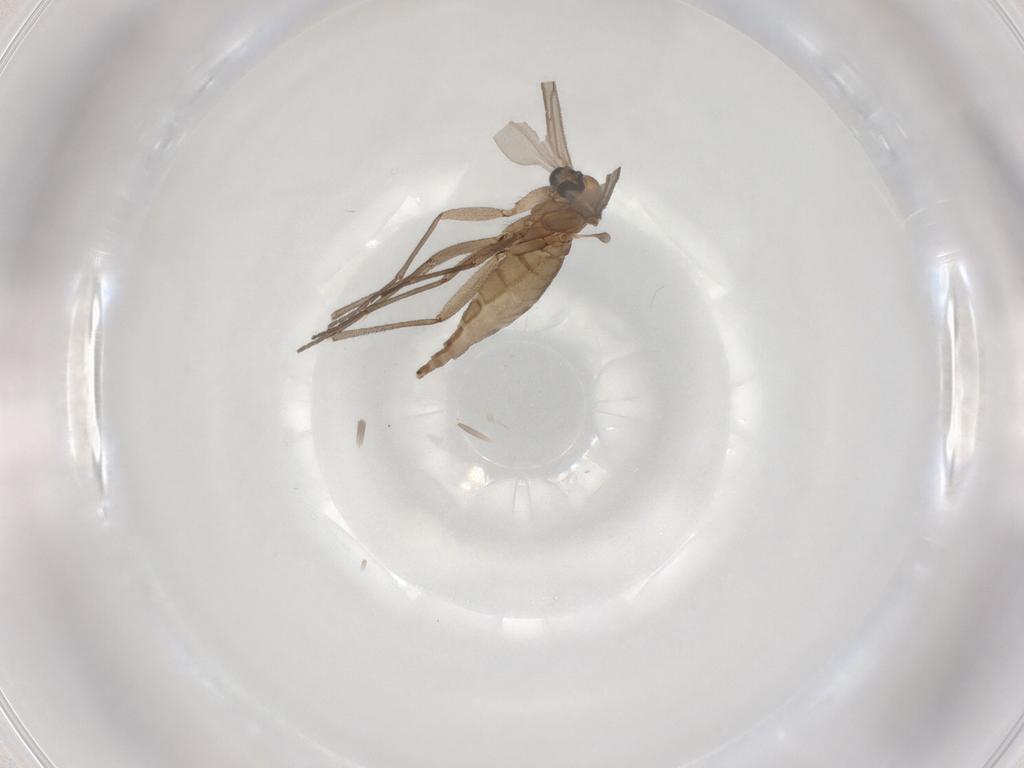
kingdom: Animalia
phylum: Arthropoda
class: Insecta
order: Diptera
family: Sciaridae
